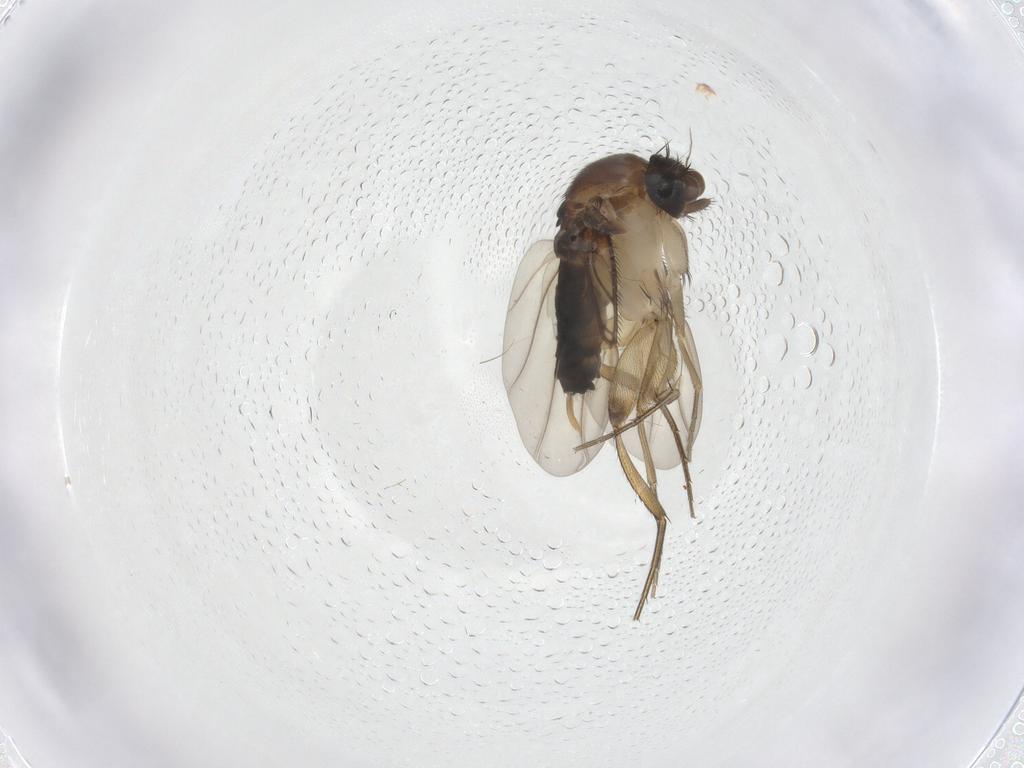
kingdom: Animalia
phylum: Arthropoda
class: Insecta
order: Diptera
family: Phoridae
